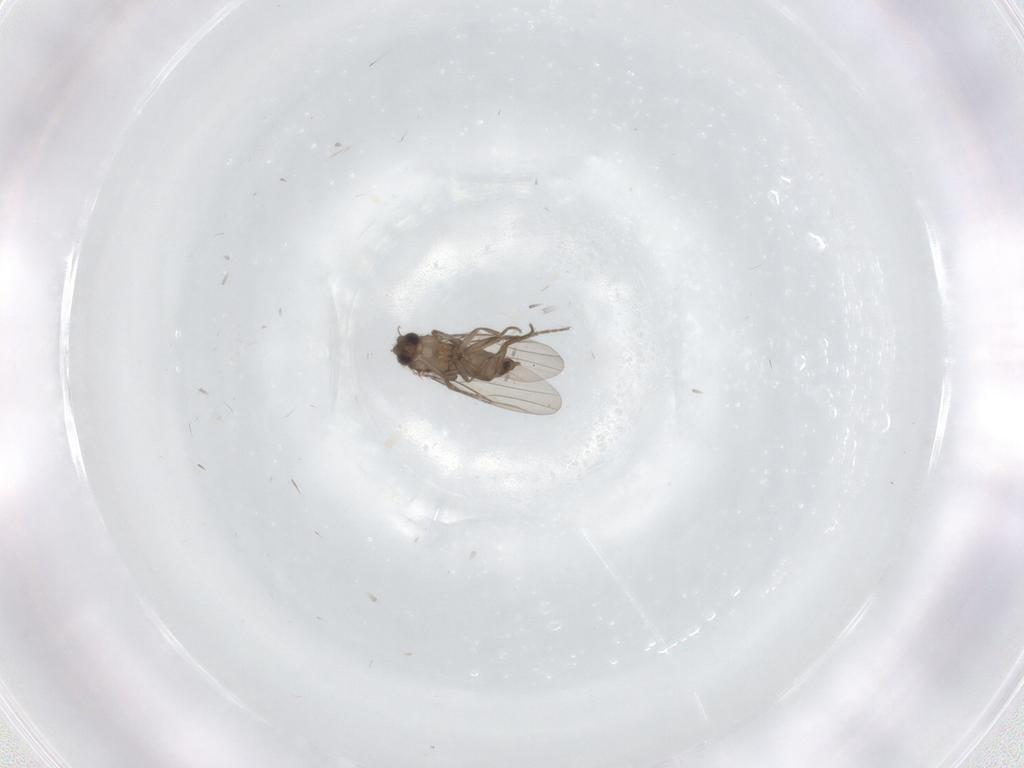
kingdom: Animalia
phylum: Arthropoda
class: Insecta
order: Diptera
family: Phoridae
